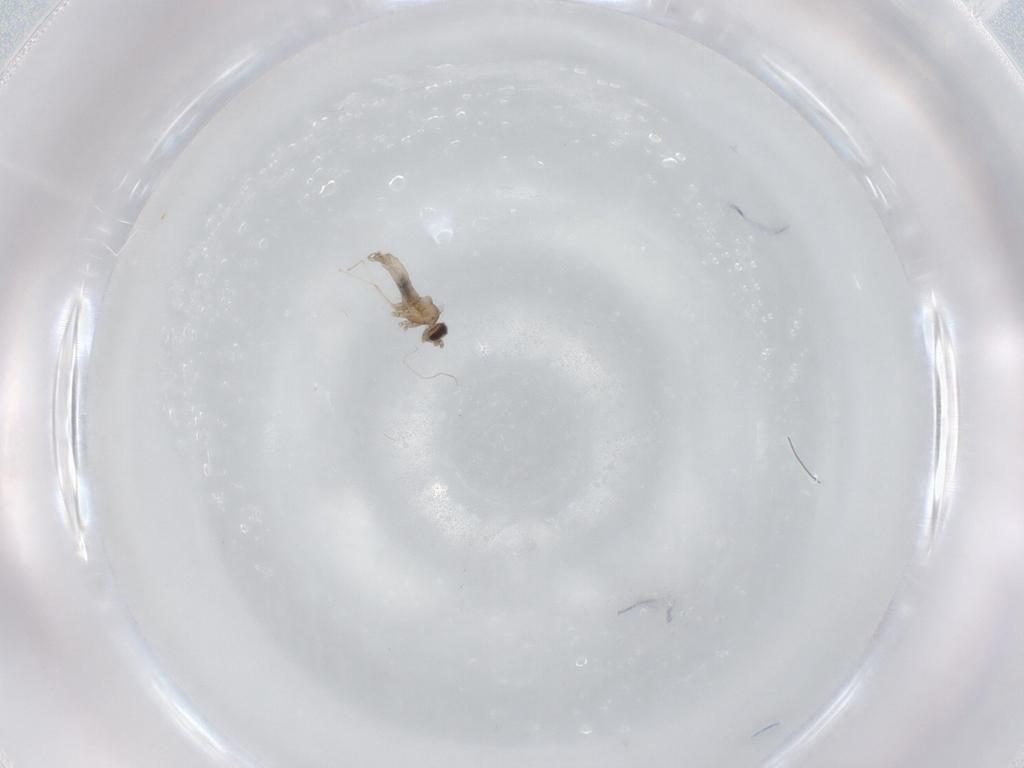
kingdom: Animalia
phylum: Arthropoda
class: Insecta
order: Diptera
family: Cecidomyiidae
